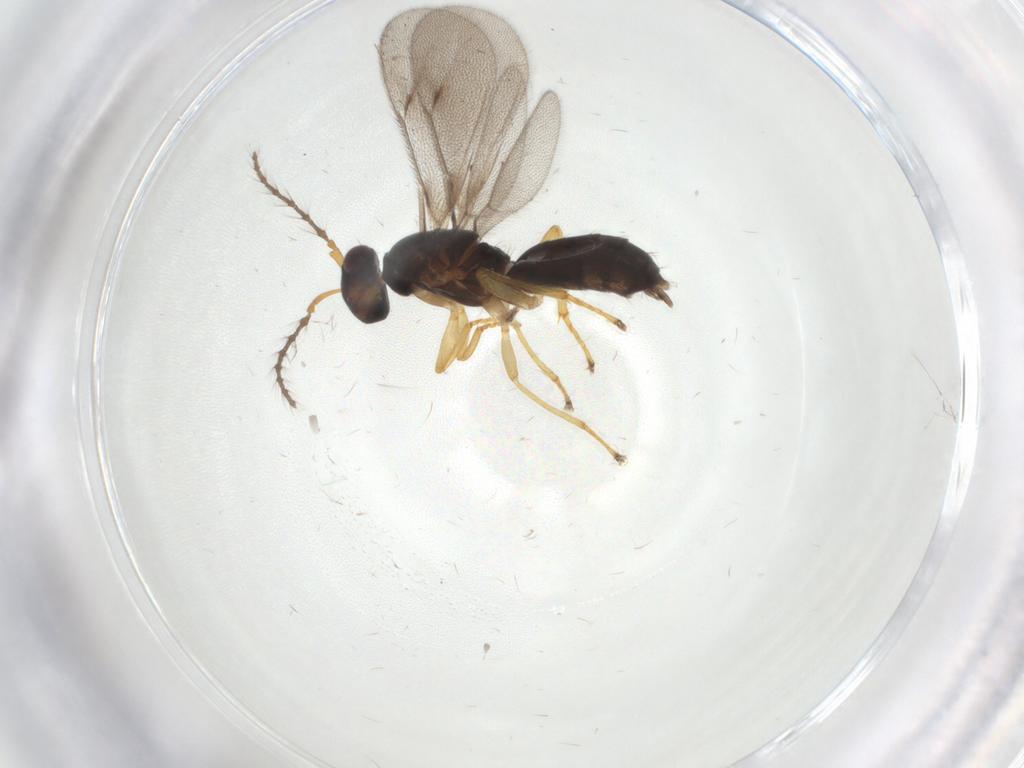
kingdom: Animalia
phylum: Arthropoda
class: Insecta
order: Hymenoptera
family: Eulophidae
